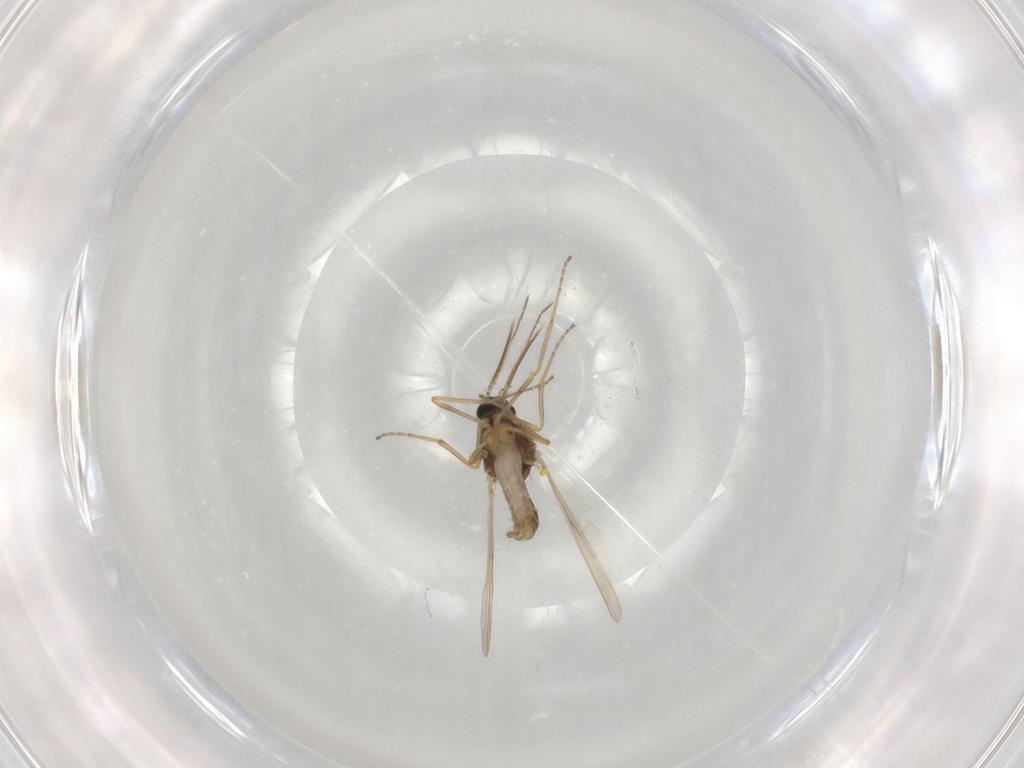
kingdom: Animalia
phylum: Arthropoda
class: Insecta
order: Diptera
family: Ceratopogonidae
